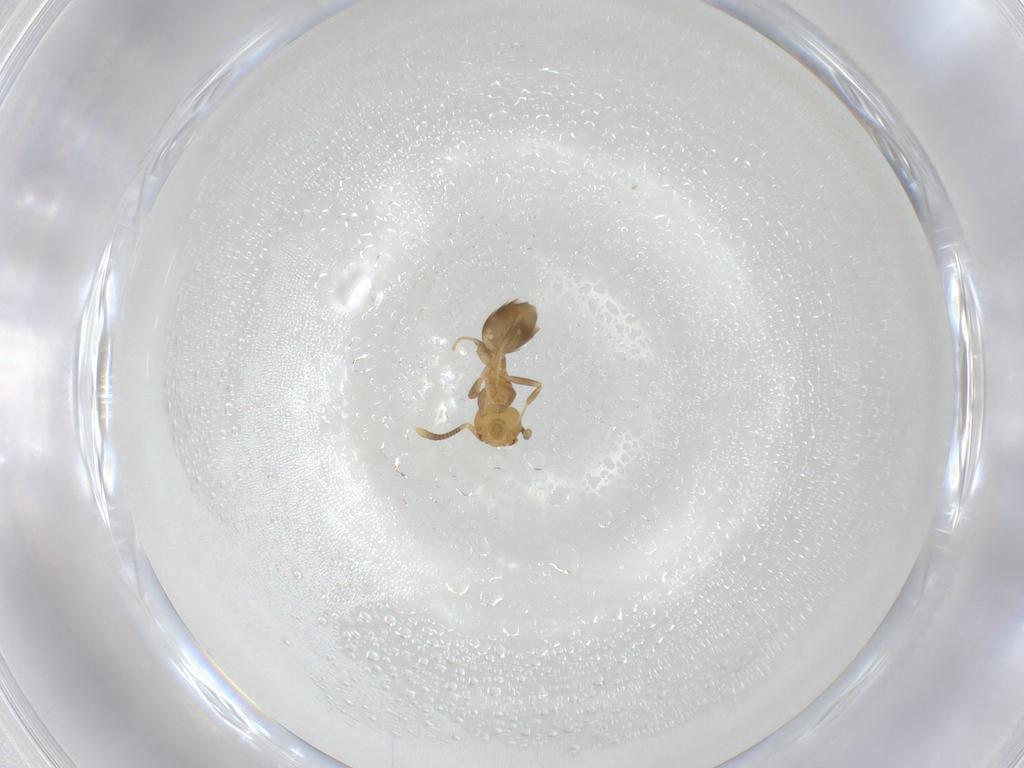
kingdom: Animalia
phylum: Arthropoda
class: Insecta
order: Hymenoptera
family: Formicidae
